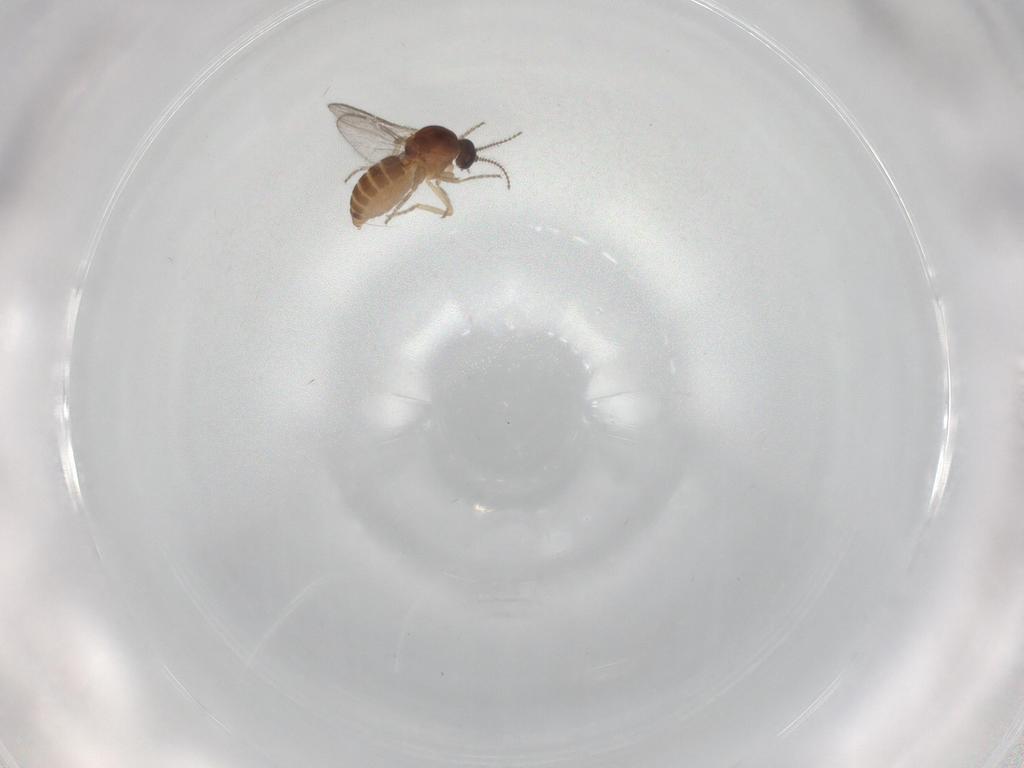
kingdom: Animalia
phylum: Arthropoda
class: Insecta
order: Diptera
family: Ceratopogonidae
